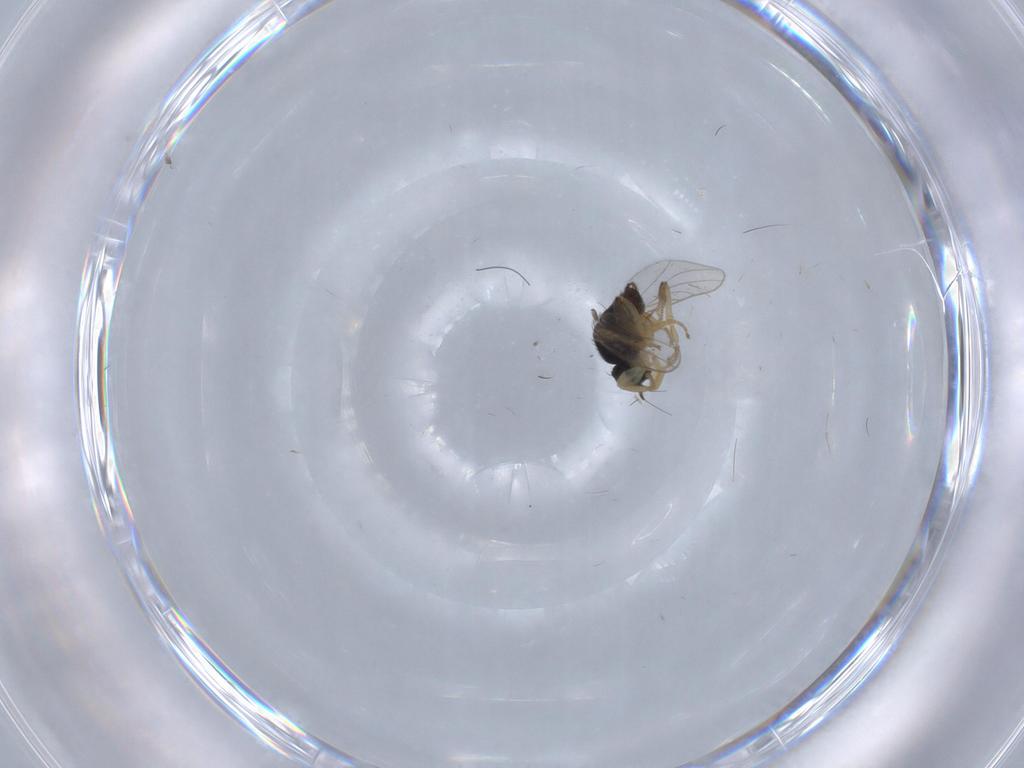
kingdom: Animalia
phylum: Arthropoda
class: Insecta
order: Diptera
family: Hybotidae
